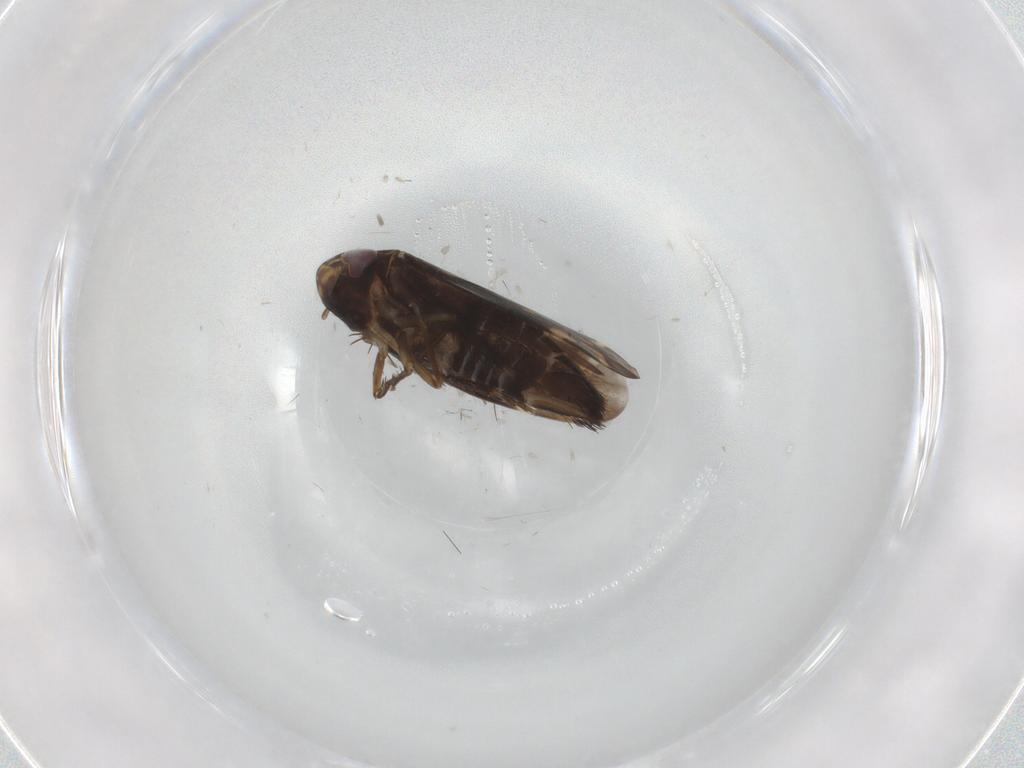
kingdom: Animalia
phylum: Arthropoda
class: Insecta
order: Hemiptera
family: Cicadellidae
